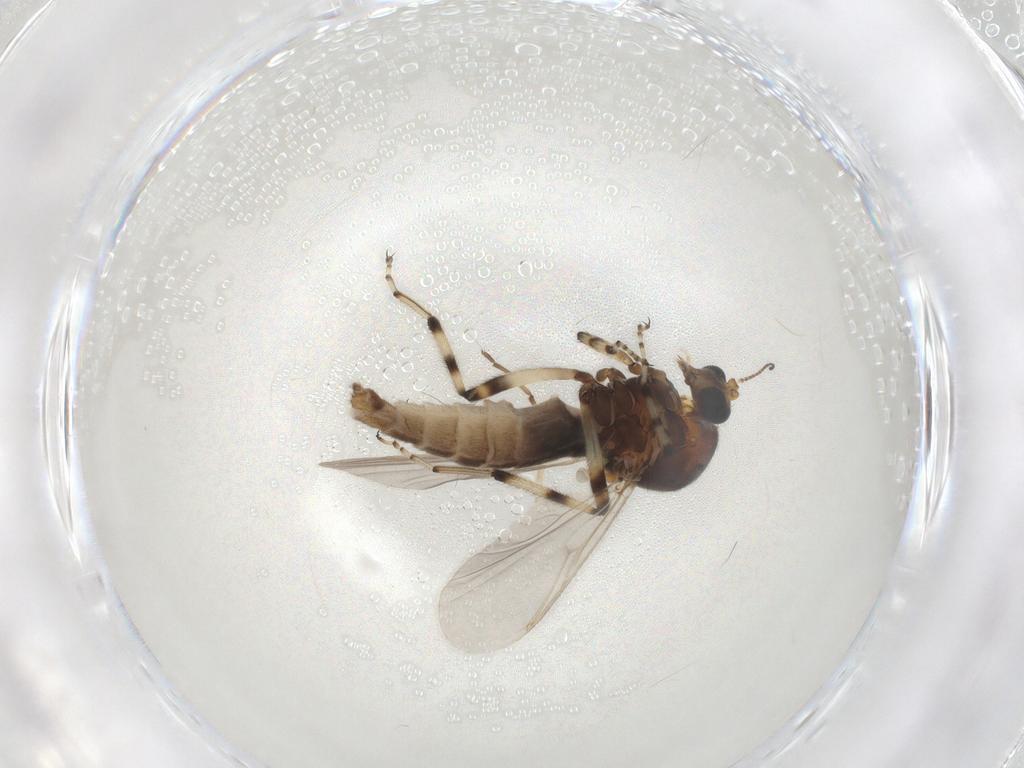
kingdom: Animalia
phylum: Arthropoda
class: Insecta
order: Diptera
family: Ceratopogonidae
